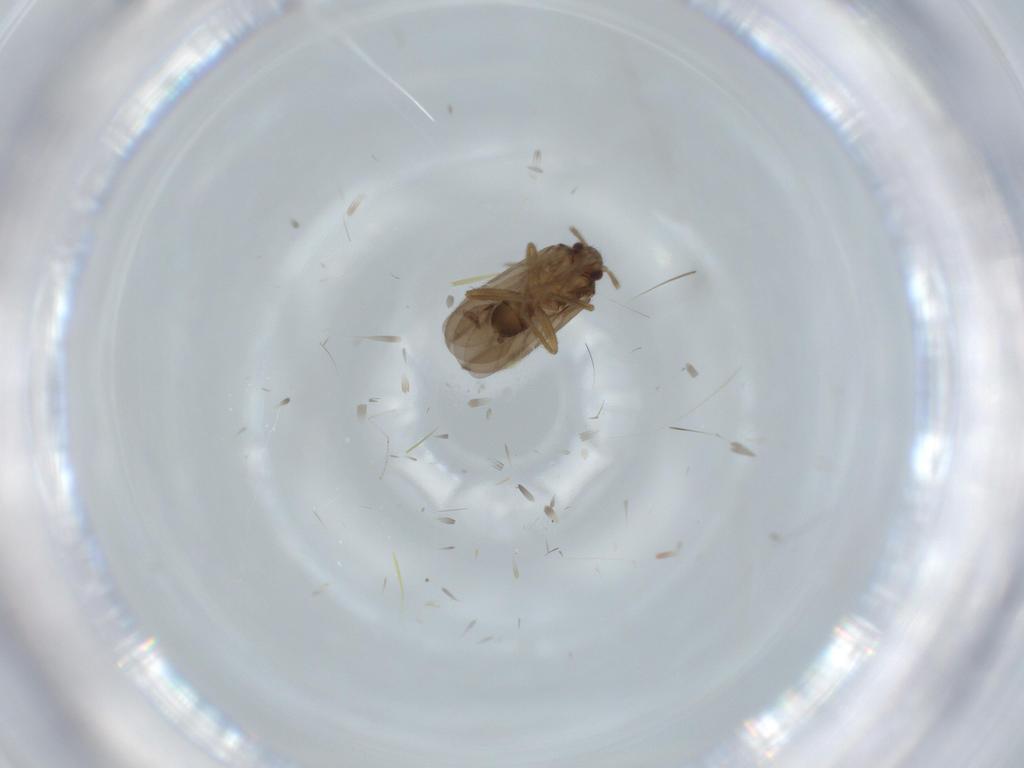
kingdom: Animalia
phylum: Arthropoda
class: Insecta
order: Hemiptera
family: Ceratocombidae
